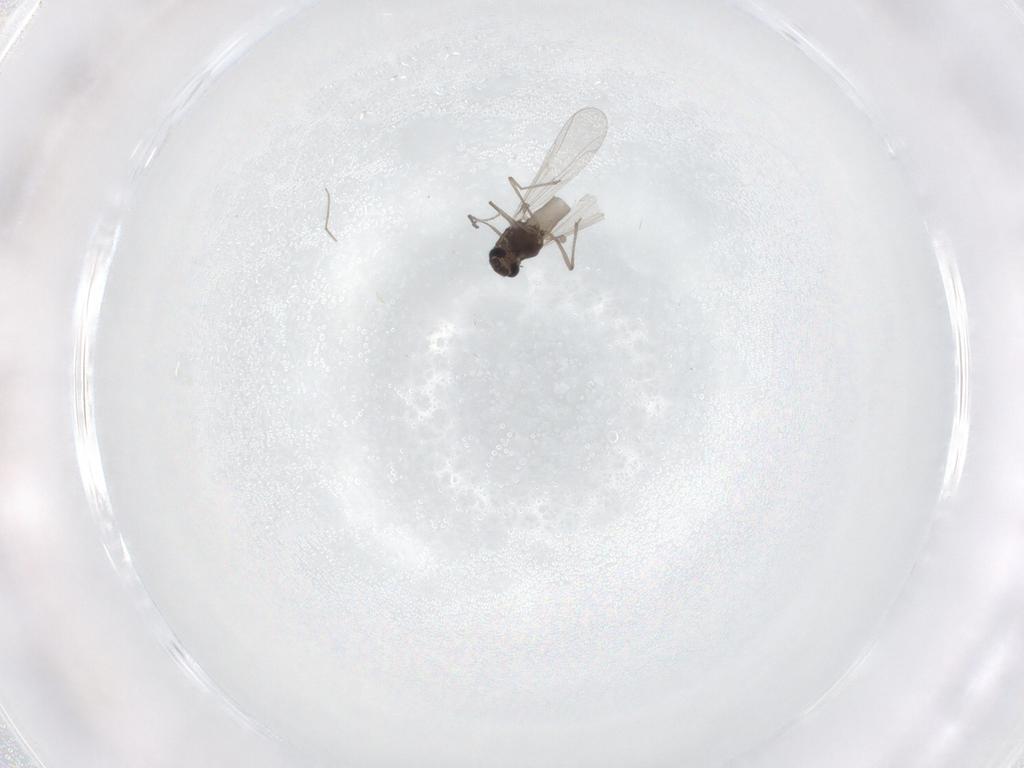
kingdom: Animalia
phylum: Arthropoda
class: Insecta
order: Diptera
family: Chironomidae
